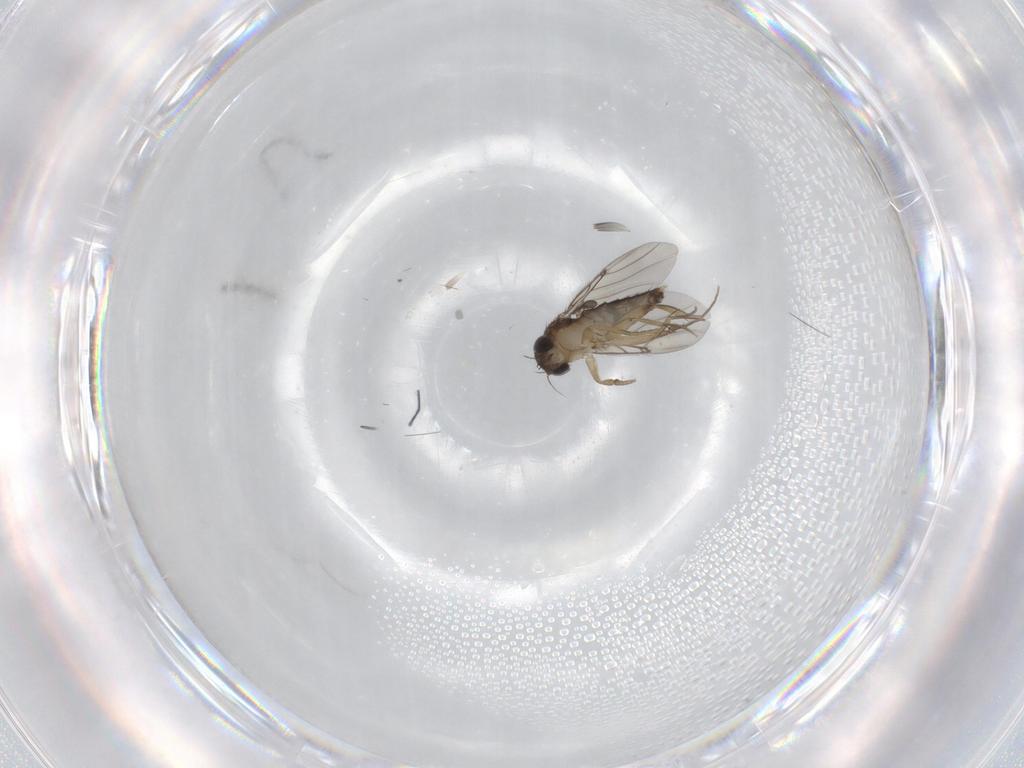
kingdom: Animalia
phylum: Arthropoda
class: Insecta
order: Diptera
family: Phoridae
